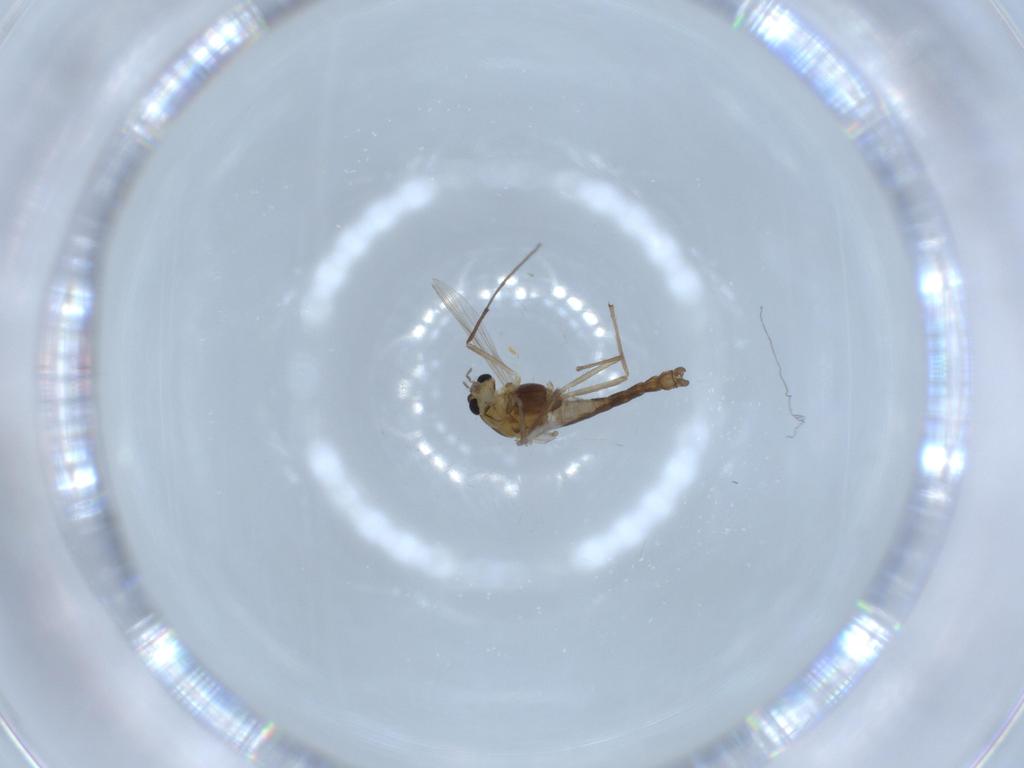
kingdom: Animalia
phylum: Arthropoda
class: Insecta
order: Diptera
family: Chironomidae
